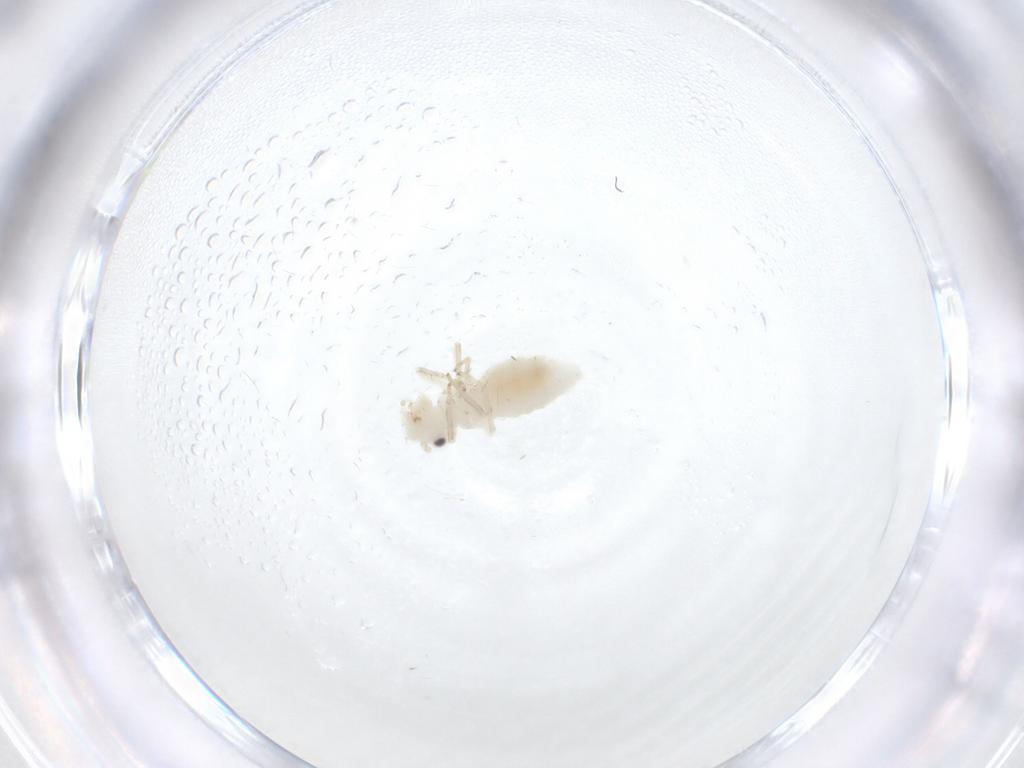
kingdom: Animalia
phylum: Arthropoda
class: Insecta
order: Psocodea
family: Caeciliusidae
